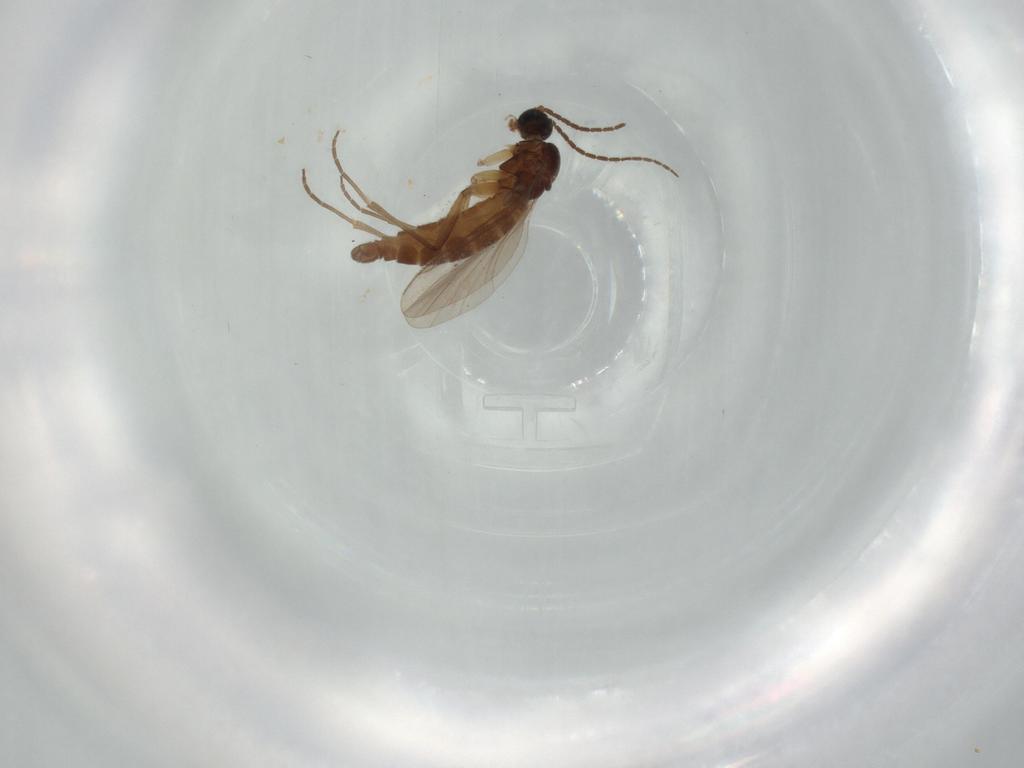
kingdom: Animalia
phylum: Arthropoda
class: Insecta
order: Diptera
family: Sciaridae
